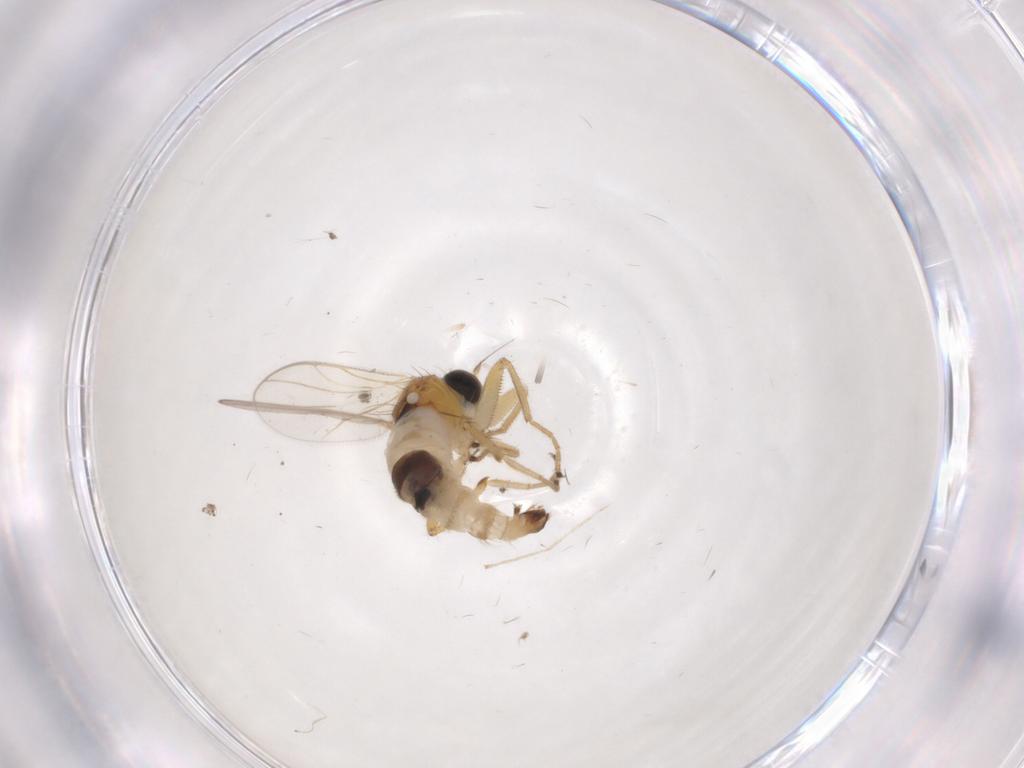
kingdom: Animalia
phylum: Arthropoda
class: Insecta
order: Diptera
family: Hybotidae
